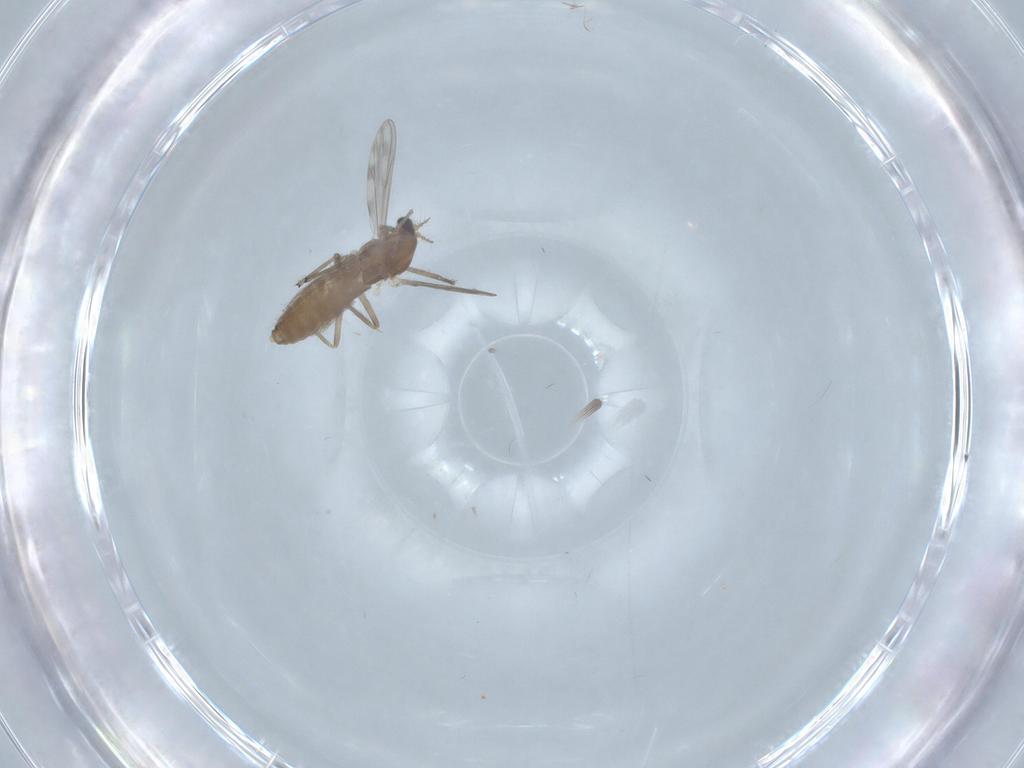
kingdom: Animalia
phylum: Arthropoda
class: Insecta
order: Diptera
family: Chironomidae
